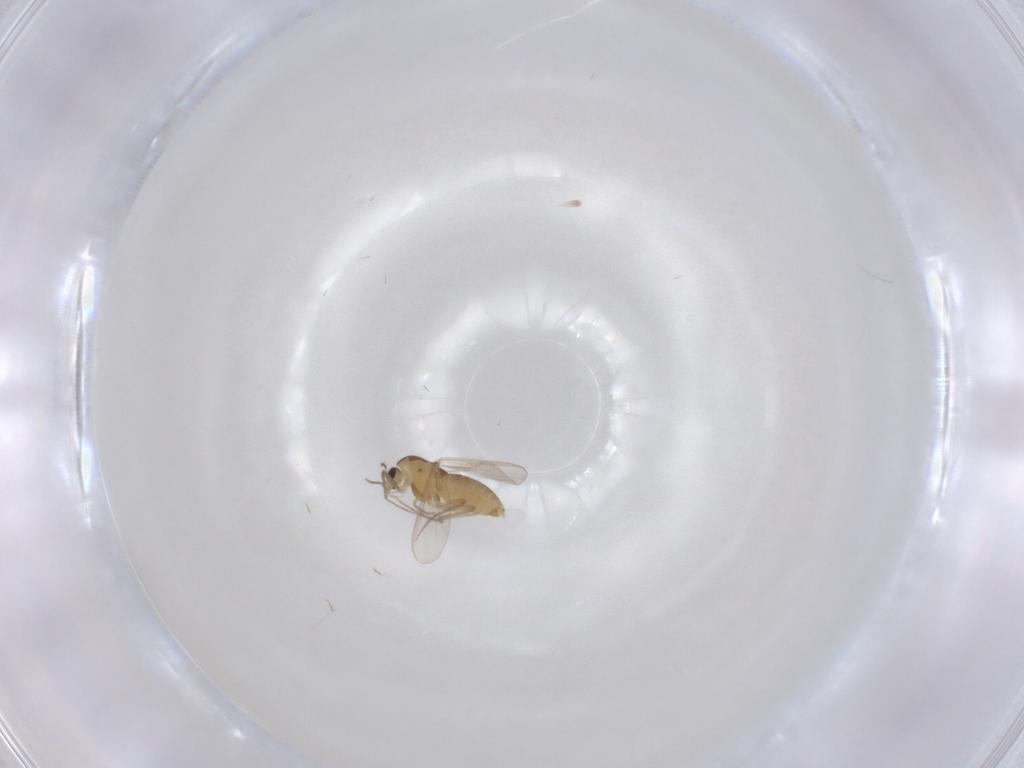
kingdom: Animalia
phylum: Arthropoda
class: Insecta
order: Diptera
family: Chironomidae
